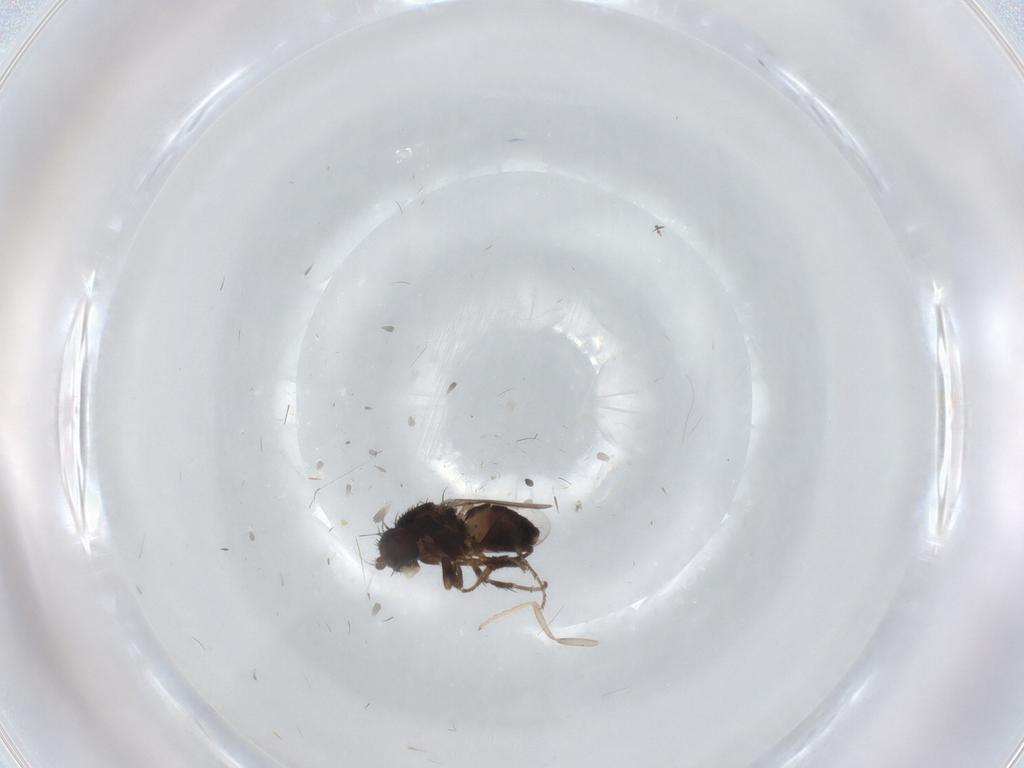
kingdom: Animalia
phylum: Arthropoda
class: Insecta
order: Diptera
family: Sphaeroceridae
